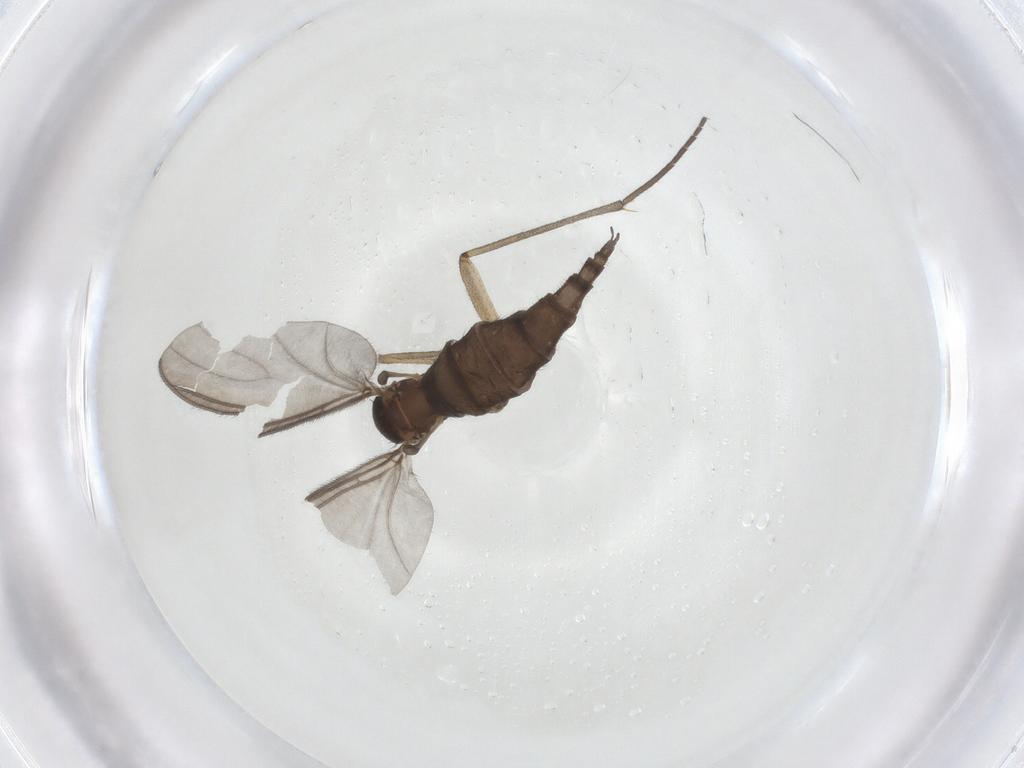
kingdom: Animalia
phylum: Arthropoda
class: Insecta
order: Diptera
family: Sciaridae
